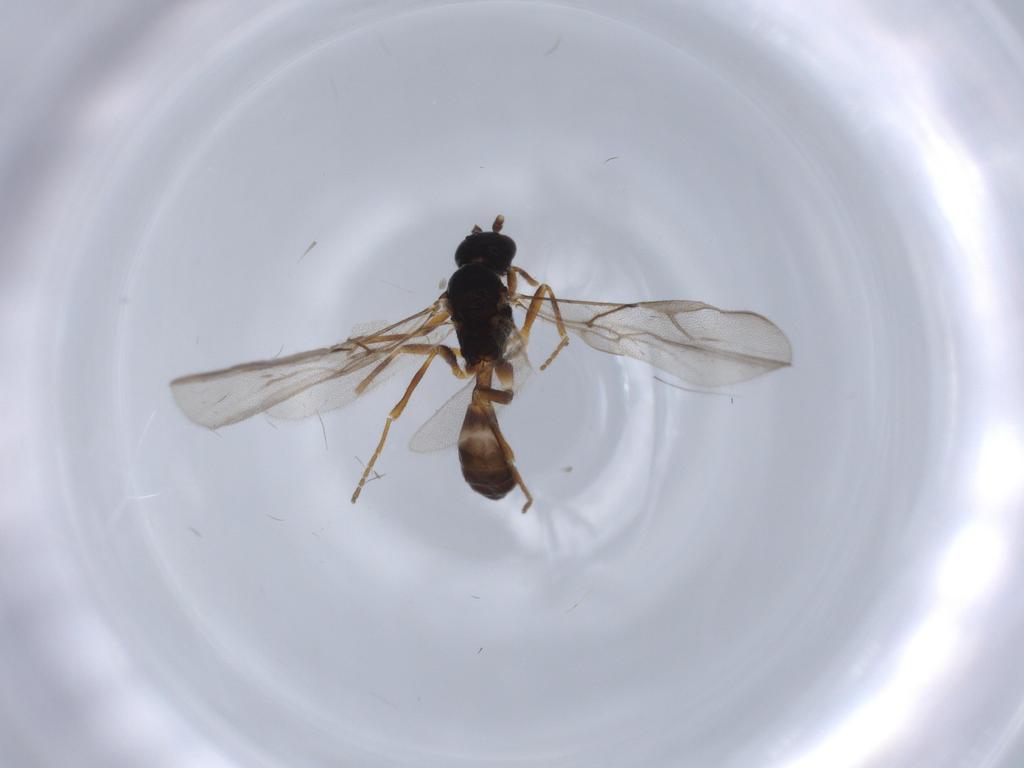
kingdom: Animalia
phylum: Arthropoda
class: Insecta
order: Hymenoptera
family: Braconidae
